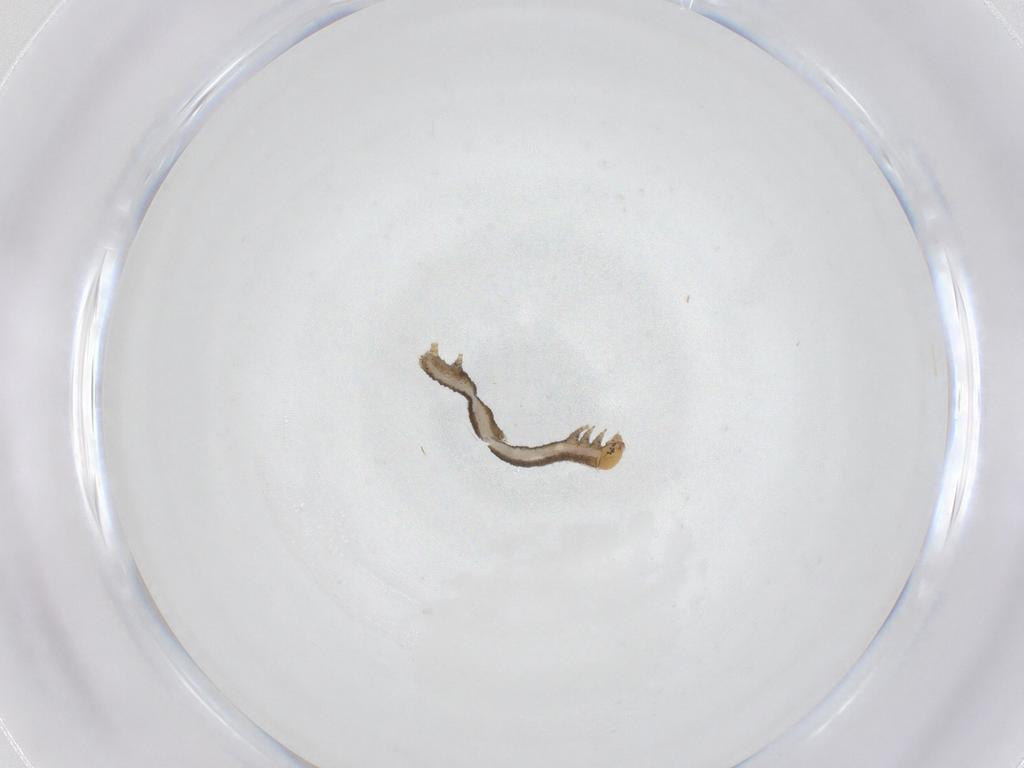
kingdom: Animalia
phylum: Arthropoda
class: Insecta
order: Lepidoptera
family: Geometridae
